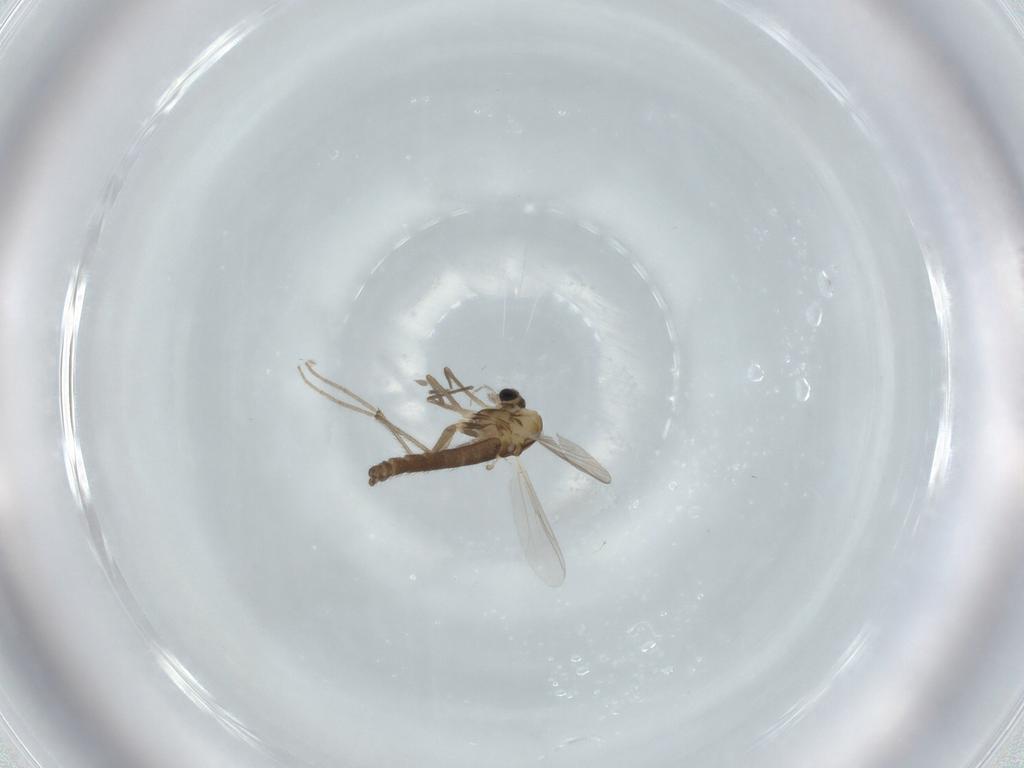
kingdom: Animalia
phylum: Arthropoda
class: Insecta
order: Diptera
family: Chironomidae
